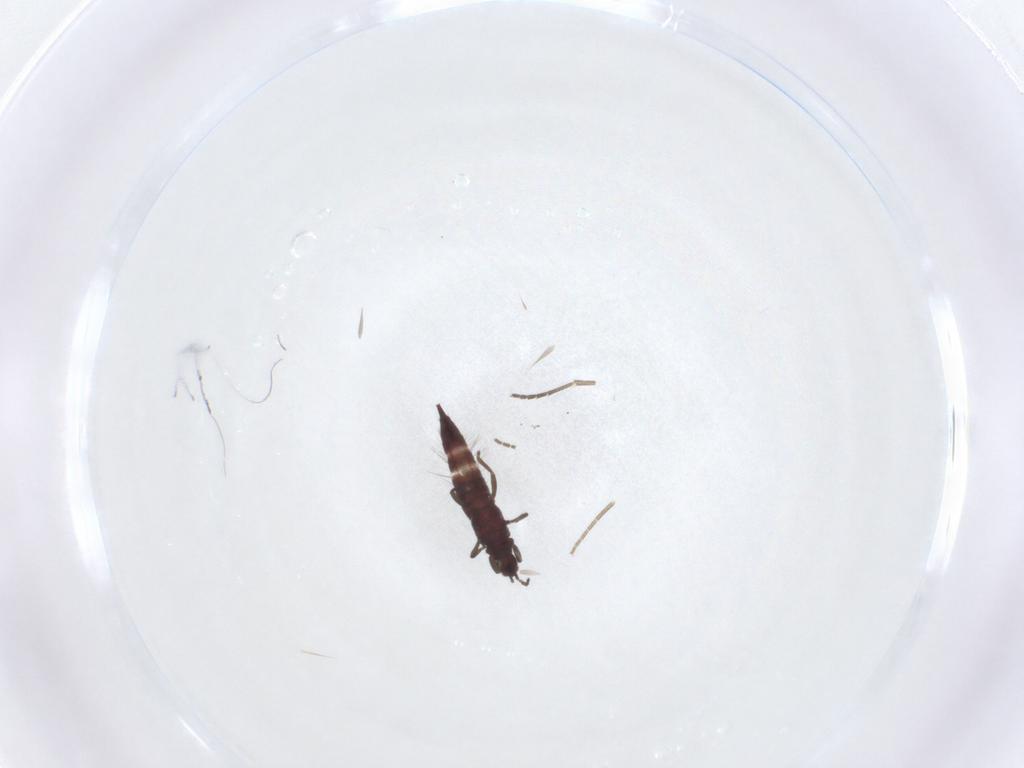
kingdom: Animalia
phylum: Arthropoda
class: Insecta
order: Thysanoptera
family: Phlaeothripidae
